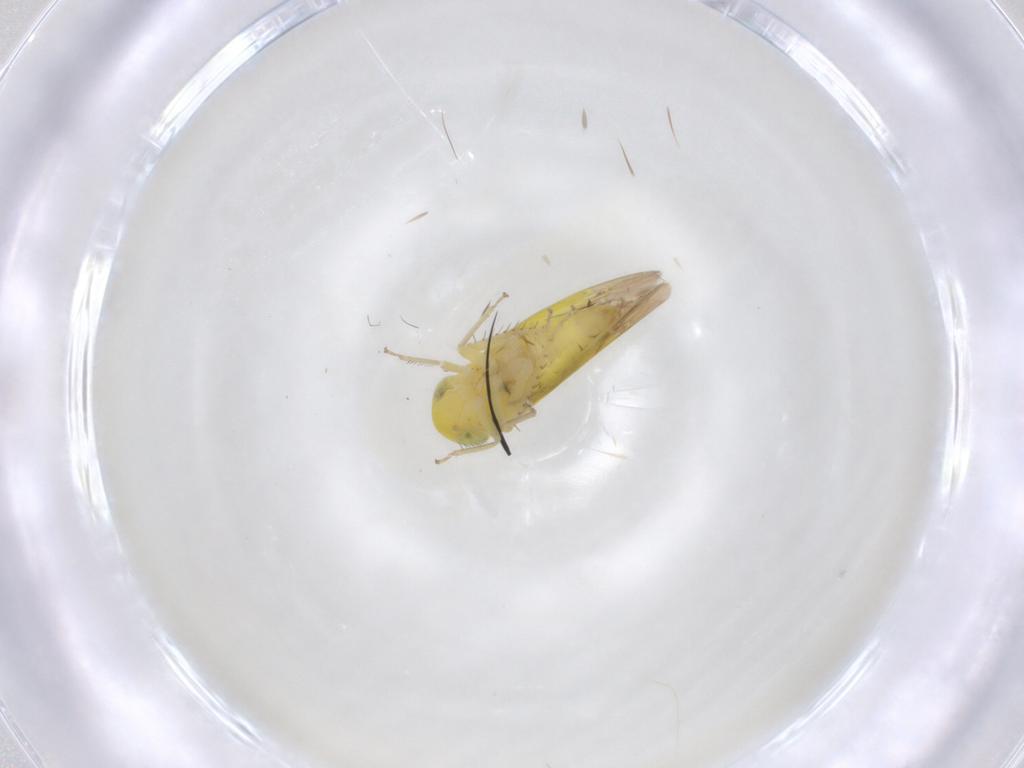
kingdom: Animalia
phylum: Arthropoda
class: Insecta
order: Hemiptera
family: Cicadellidae
